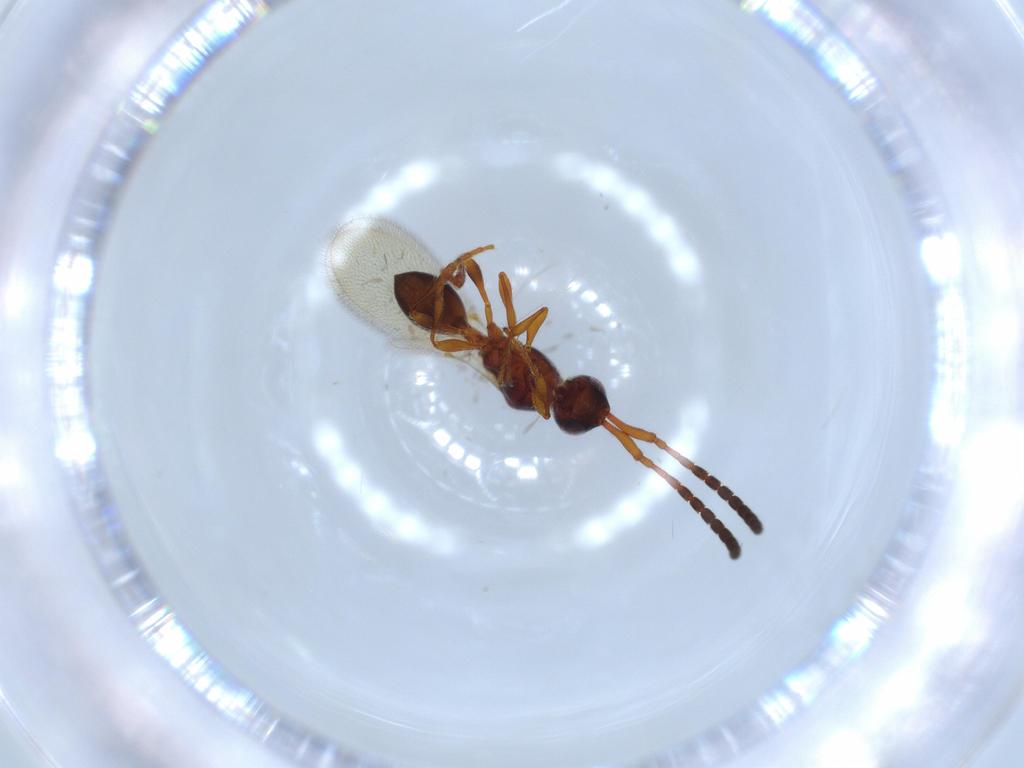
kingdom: Animalia
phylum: Arthropoda
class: Insecta
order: Hymenoptera
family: Diapriidae
